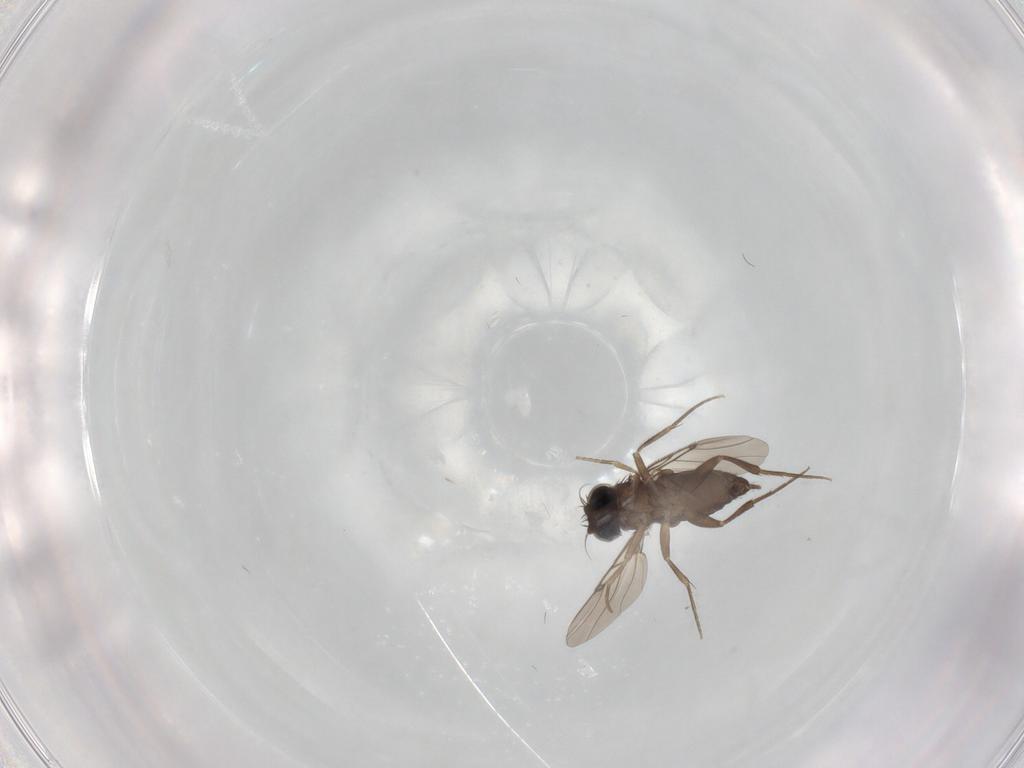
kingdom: Animalia
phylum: Arthropoda
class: Insecta
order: Diptera
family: Phoridae
